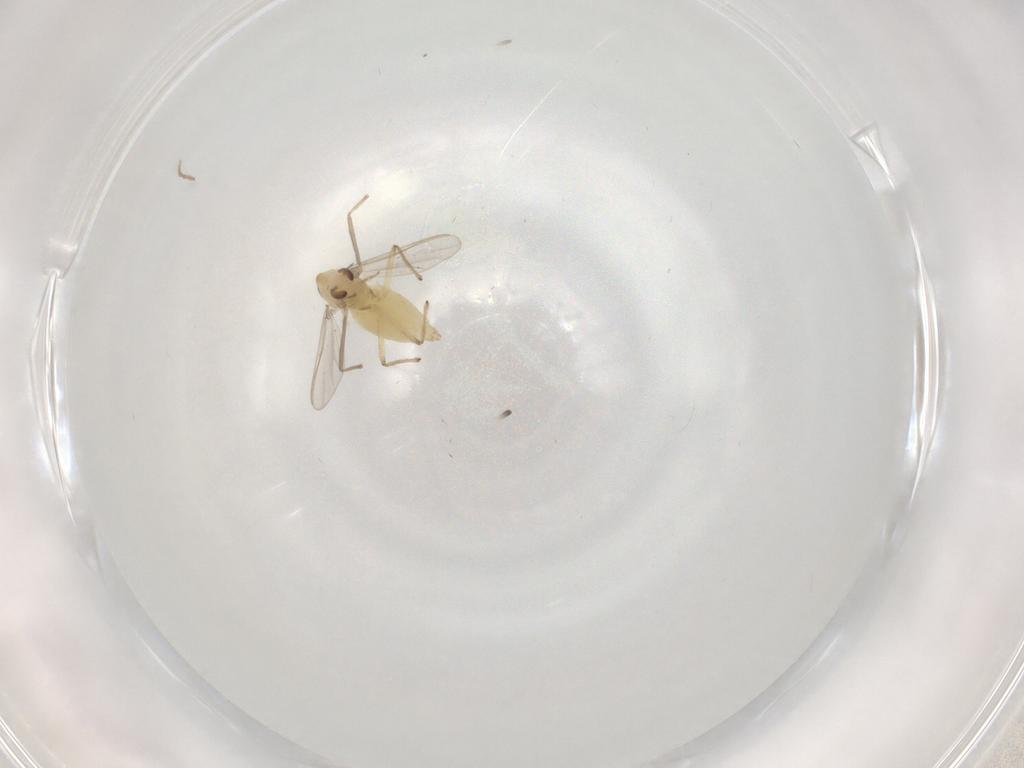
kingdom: Animalia
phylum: Arthropoda
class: Insecta
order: Diptera
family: Chironomidae
